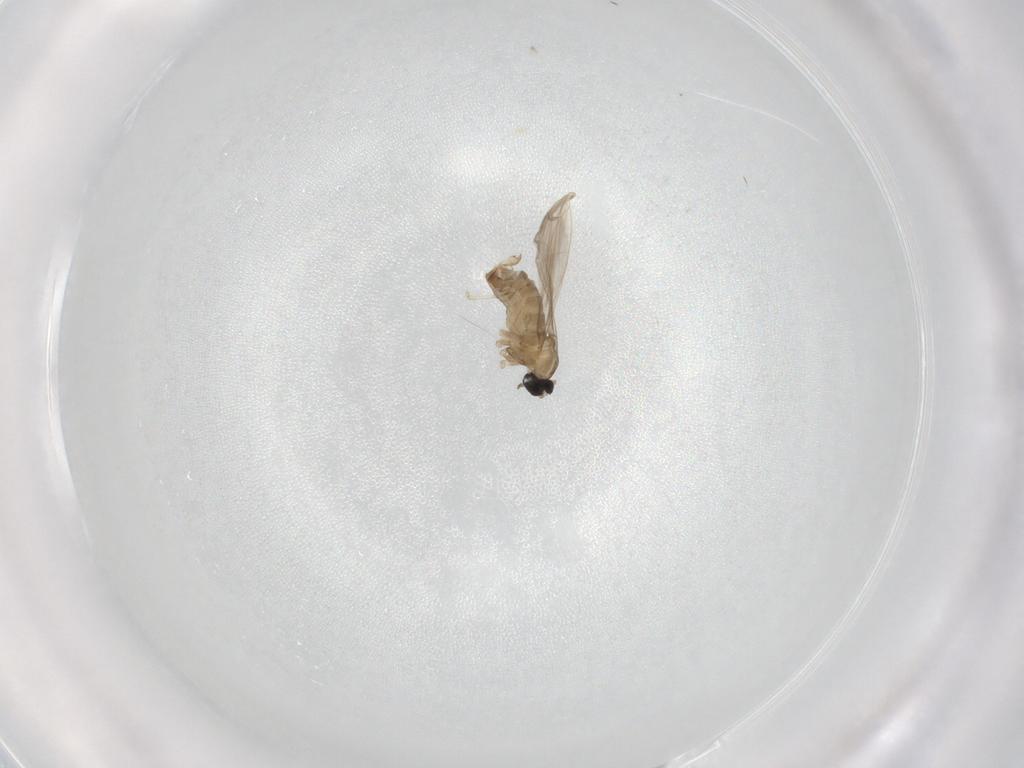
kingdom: Animalia
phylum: Arthropoda
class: Insecta
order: Diptera
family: Cecidomyiidae
